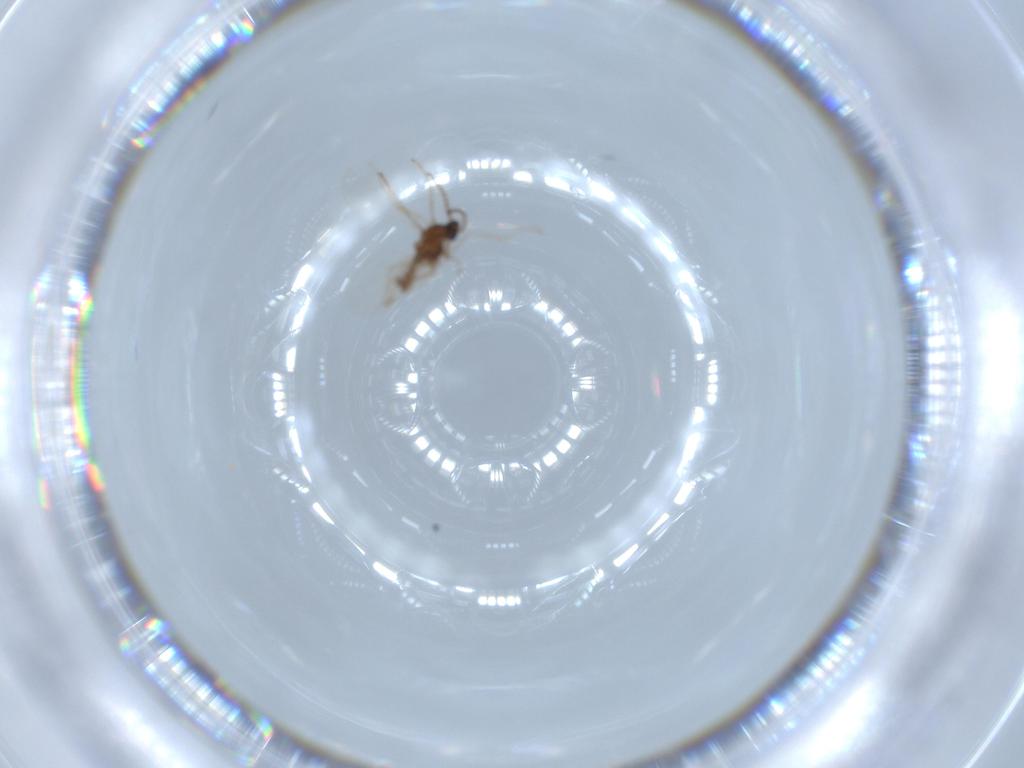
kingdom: Animalia
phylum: Arthropoda
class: Insecta
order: Diptera
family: Cecidomyiidae
